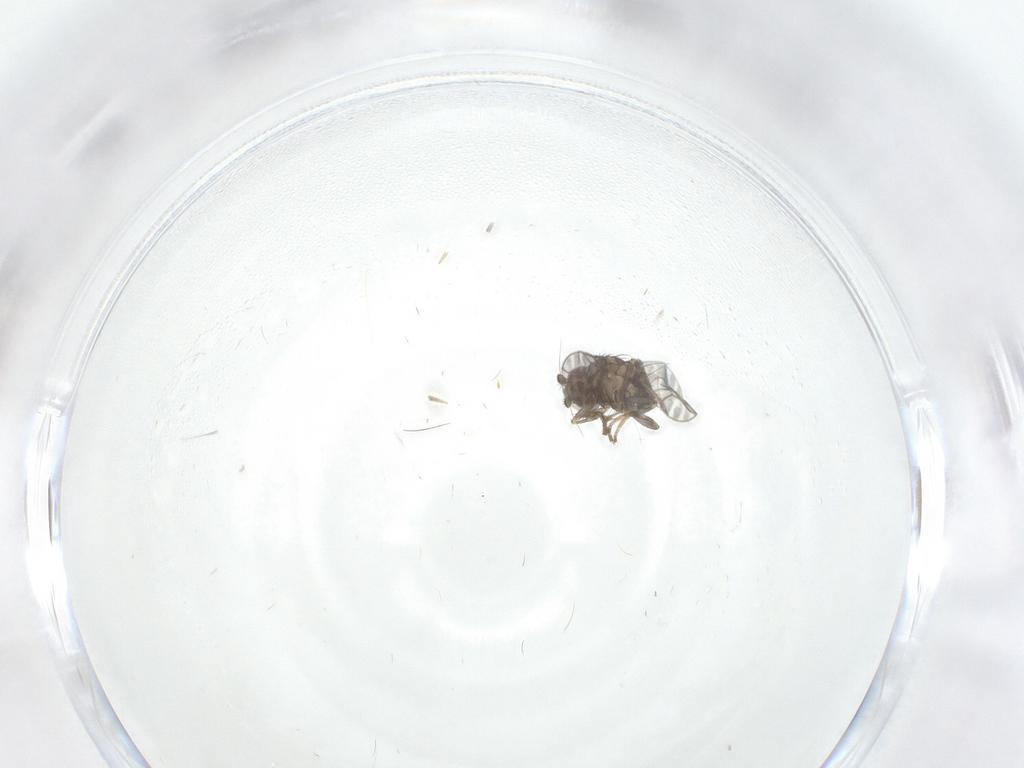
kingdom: Animalia
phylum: Arthropoda
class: Insecta
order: Diptera
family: Sphaeroceridae
